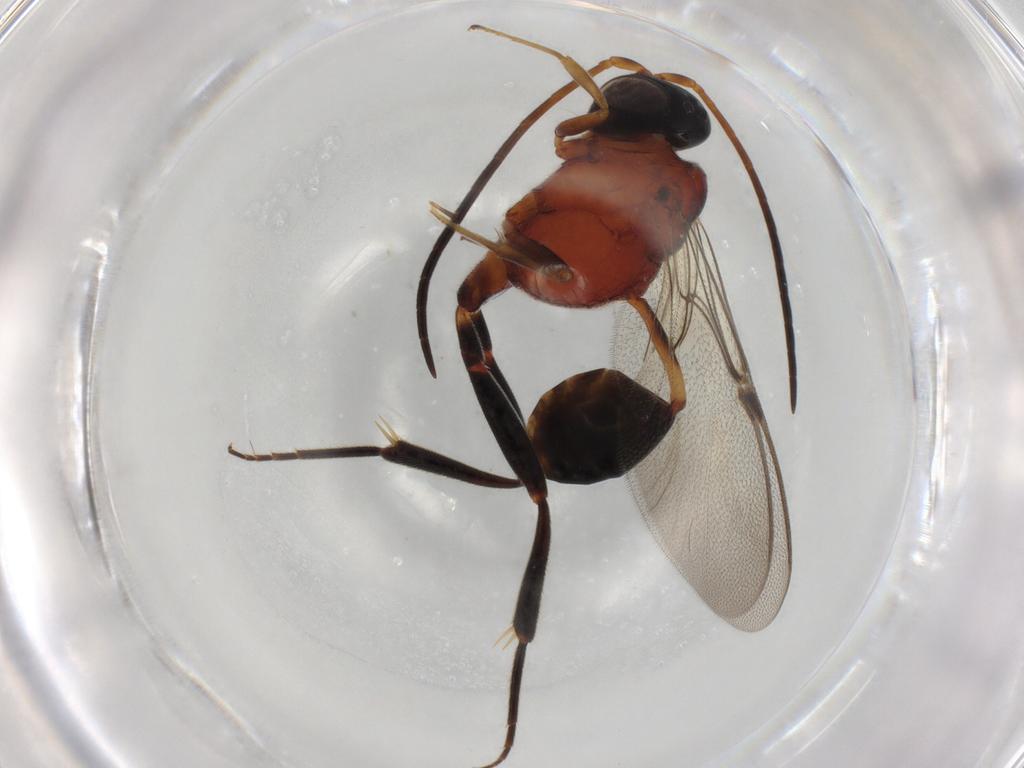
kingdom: Animalia
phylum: Arthropoda
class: Insecta
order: Hymenoptera
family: Evaniidae
